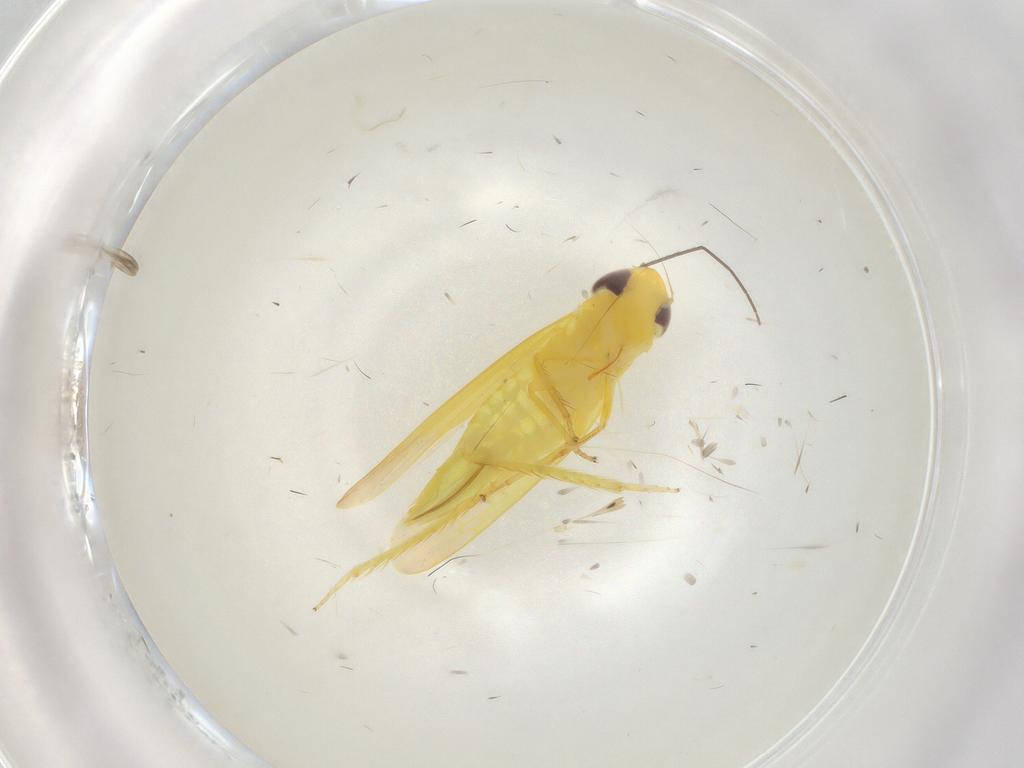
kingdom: Animalia
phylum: Arthropoda
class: Insecta
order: Hemiptera
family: Cicadellidae
